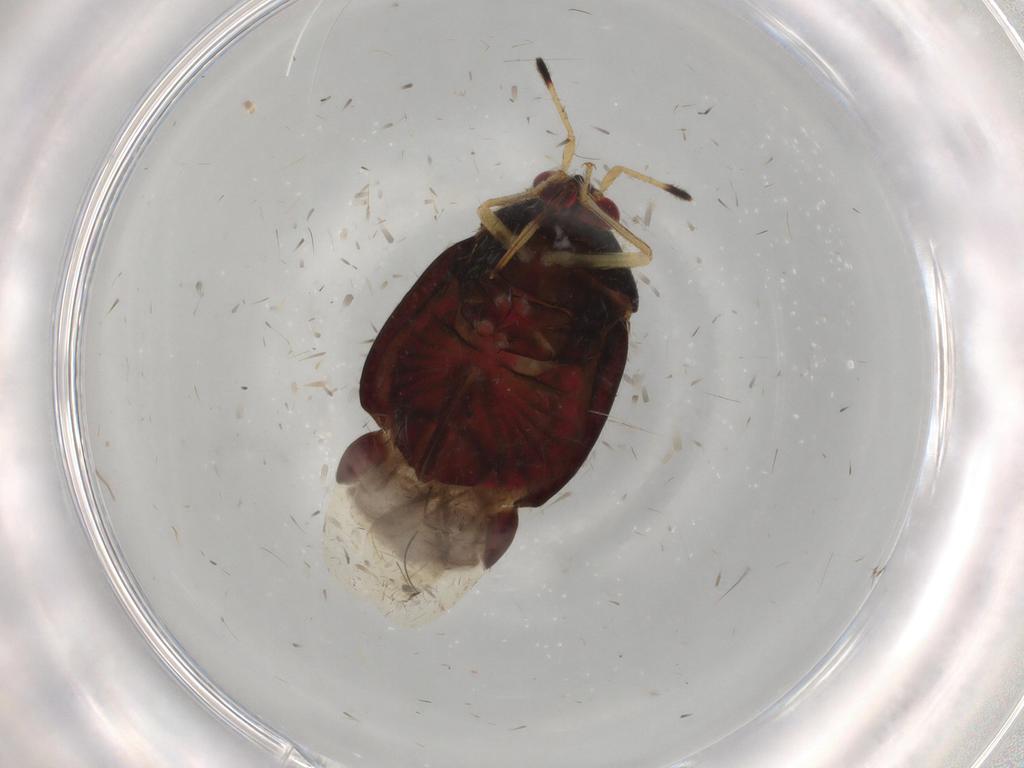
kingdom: Animalia
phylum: Arthropoda
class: Insecta
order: Hemiptera
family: Miridae
